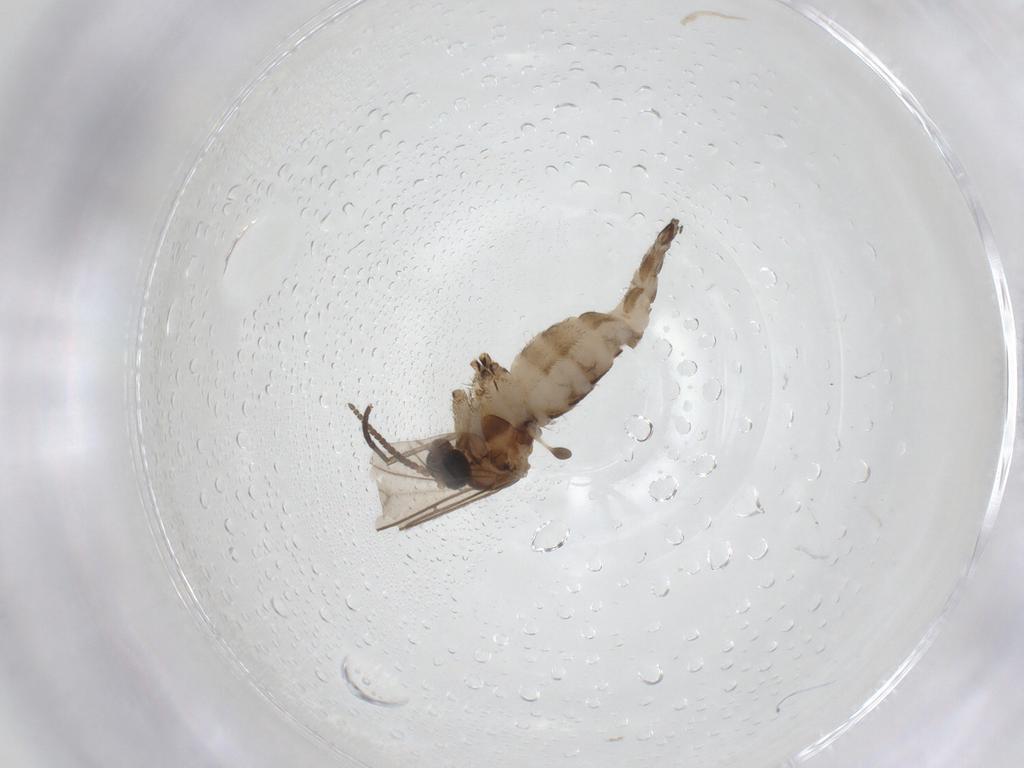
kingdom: Animalia
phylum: Arthropoda
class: Insecta
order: Diptera
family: Sciaridae
